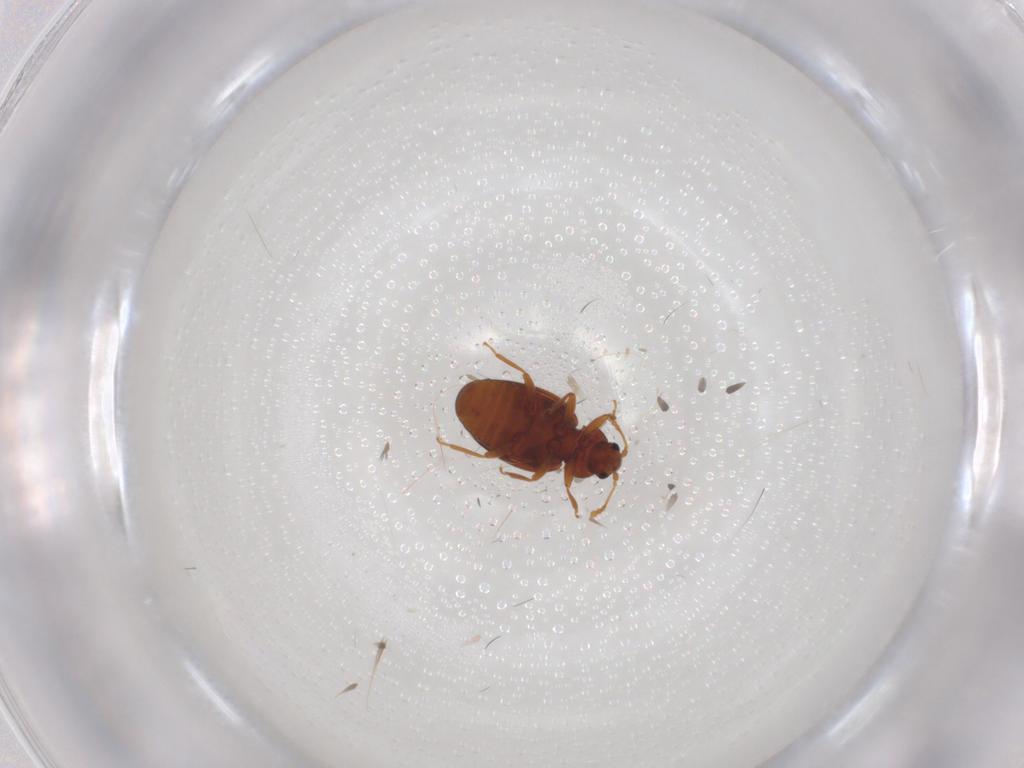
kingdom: Animalia
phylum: Arthropoda
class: Insecta
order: Coleoptera
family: Latridiidae
